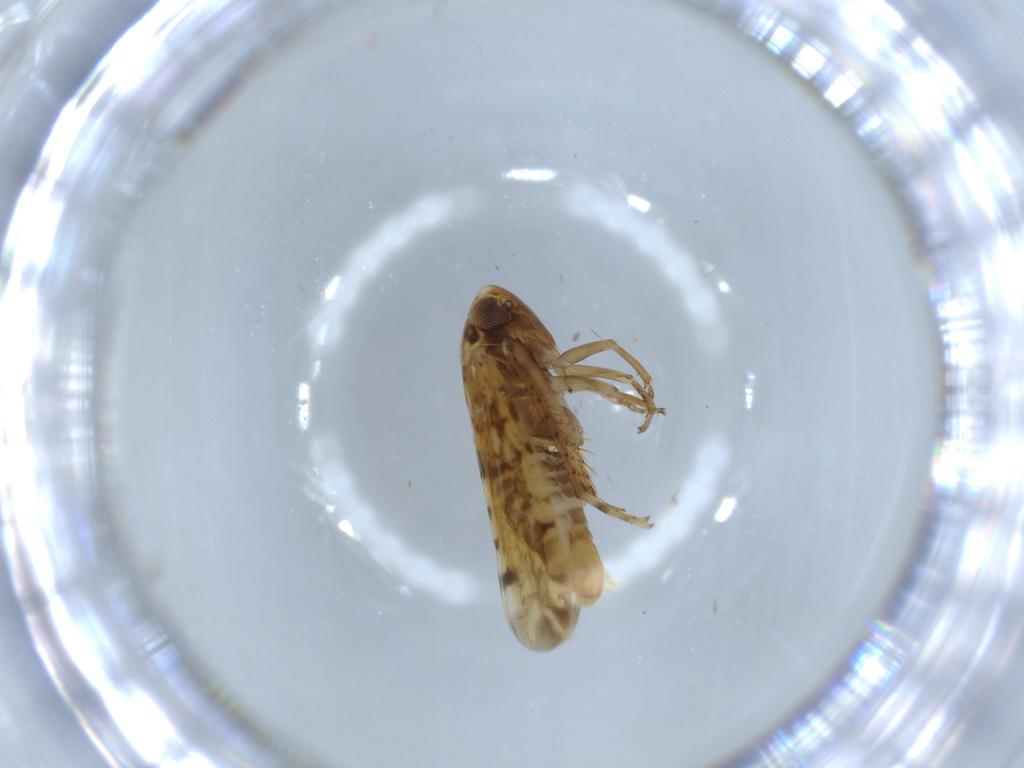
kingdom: Animalia
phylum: Arthropoda
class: Insecta
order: Hemiptera
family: Cicadellidae
